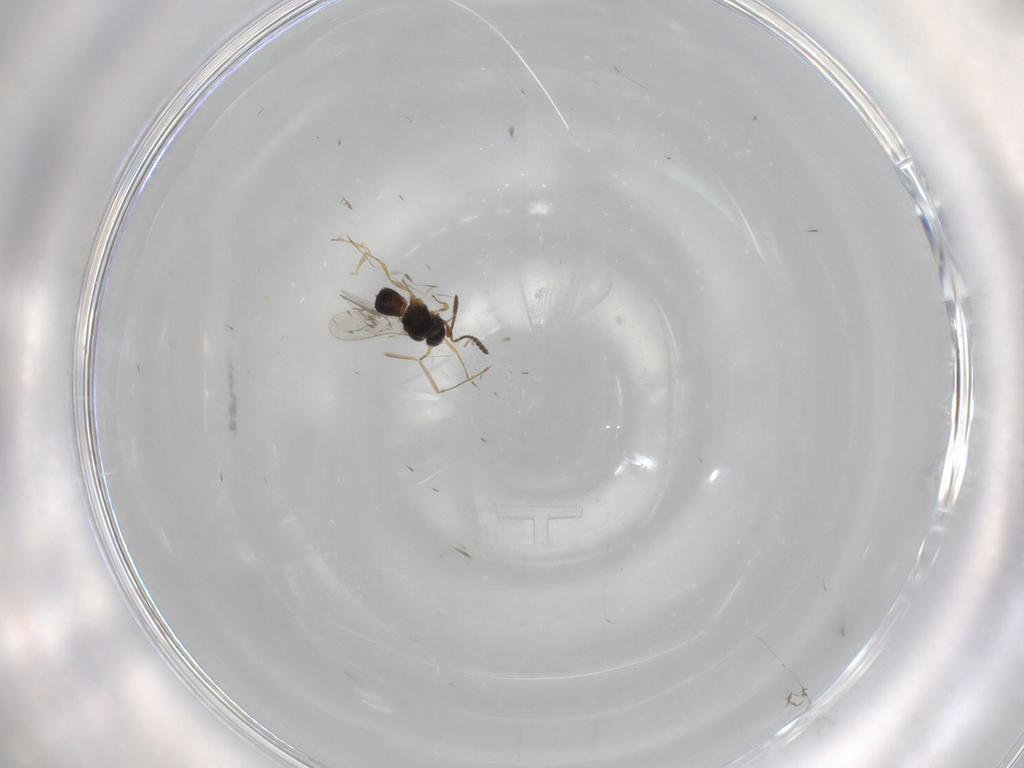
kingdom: Animalia
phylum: Arthropoda
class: Insecta
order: Hymenoptera
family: Scelionidae
